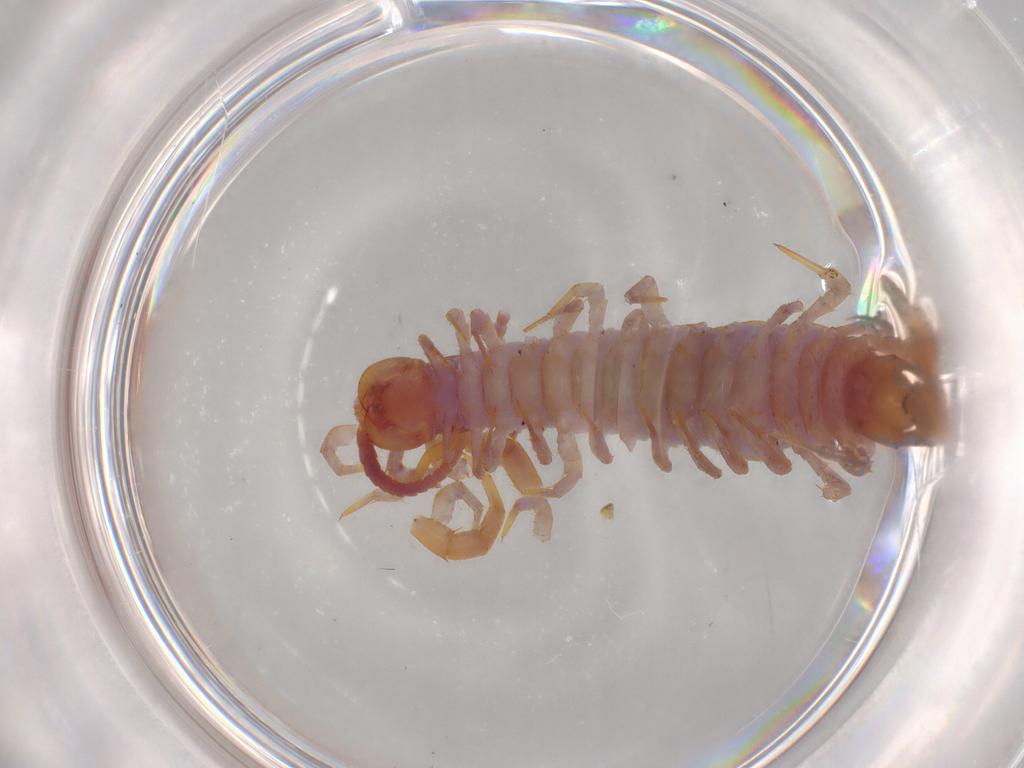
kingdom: Animalia
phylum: Arthropoda
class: Chilopoda
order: Lithobiomorpha
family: Lithobiidae
